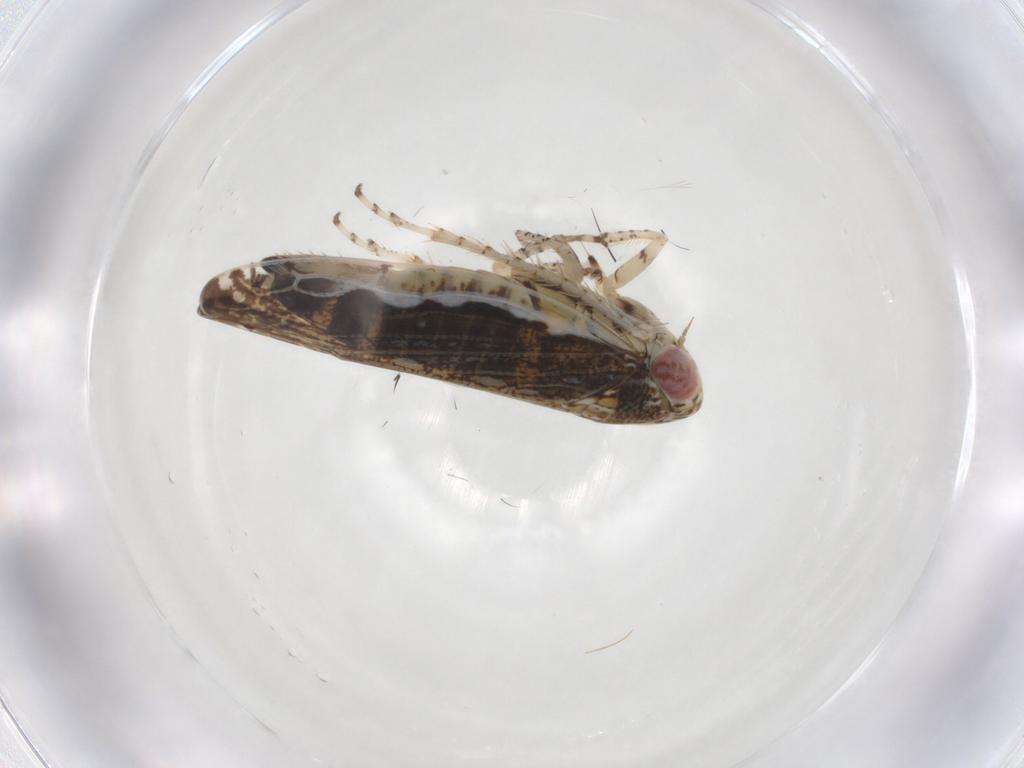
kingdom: Animalia
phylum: Arthropoda
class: Insecta
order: Hemiptera
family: Cicadellidae
